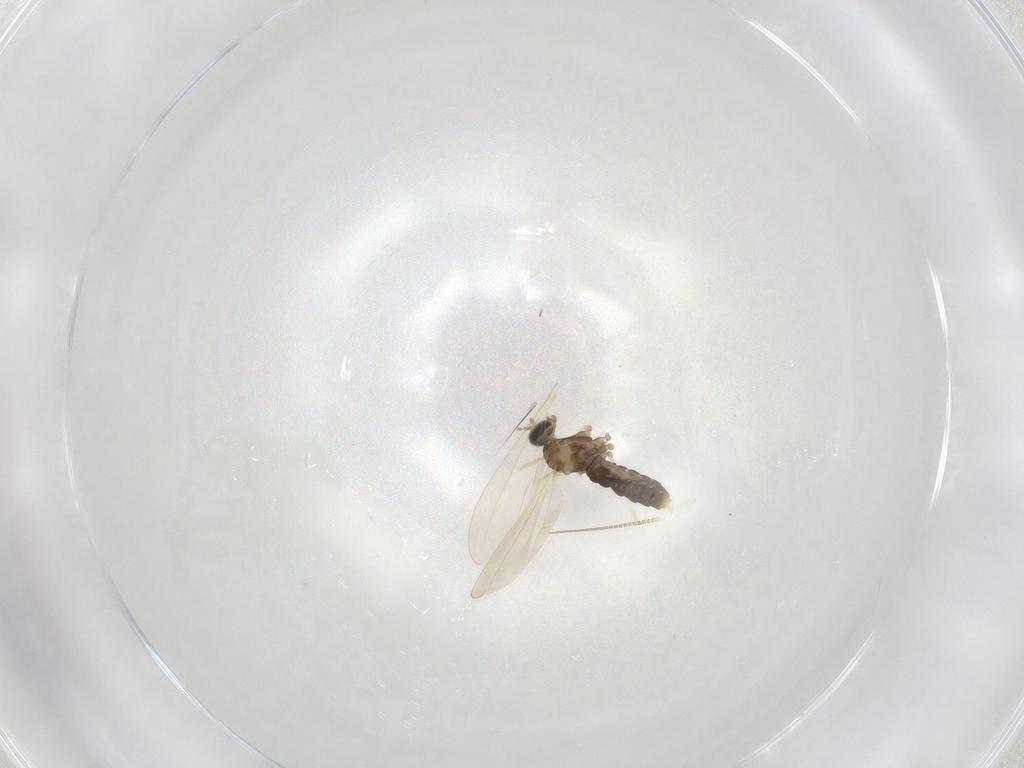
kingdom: Animalia
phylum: Arthropoda
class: Insecta
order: Diptera
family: Cecidomyiidae
